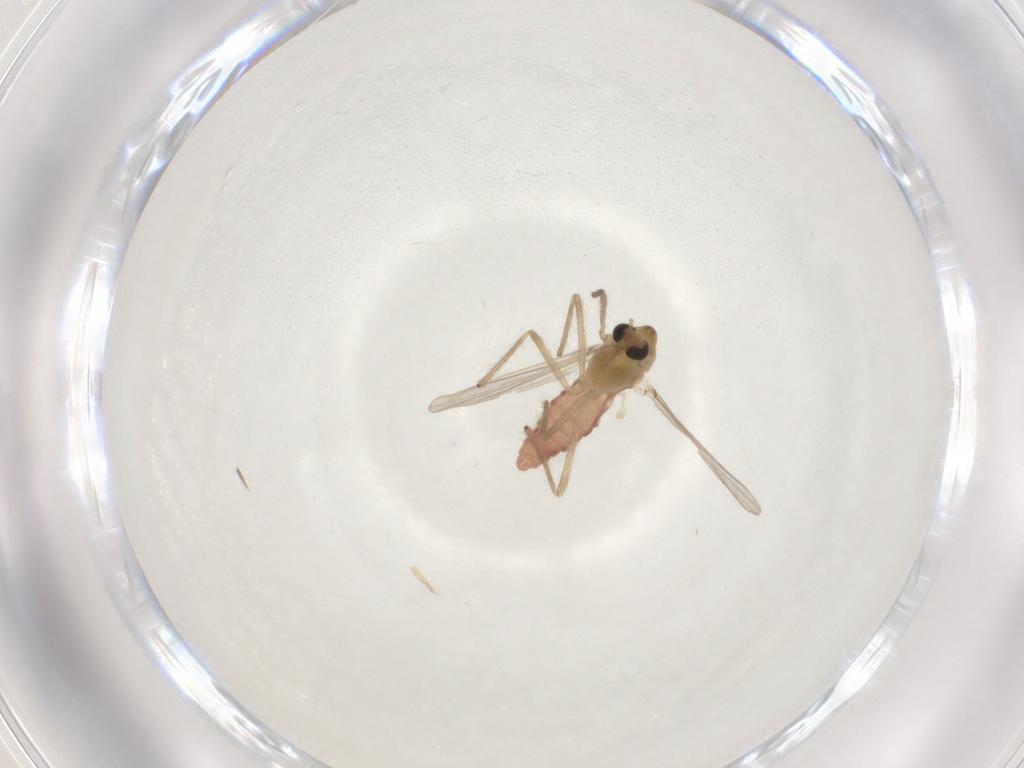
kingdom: Animalia
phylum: Arthropoda
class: Insecta
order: Diptera
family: Chironomidae
